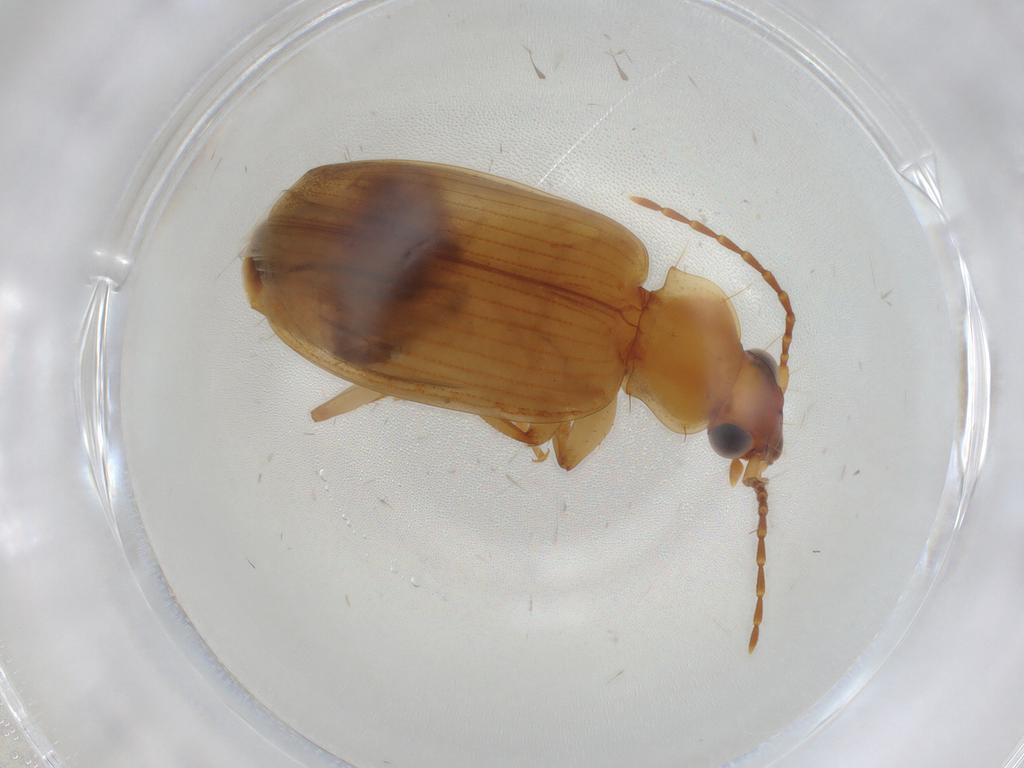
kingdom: Animalia
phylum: Arthropoda
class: Insecta
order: Coleoptera
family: Carabidae
